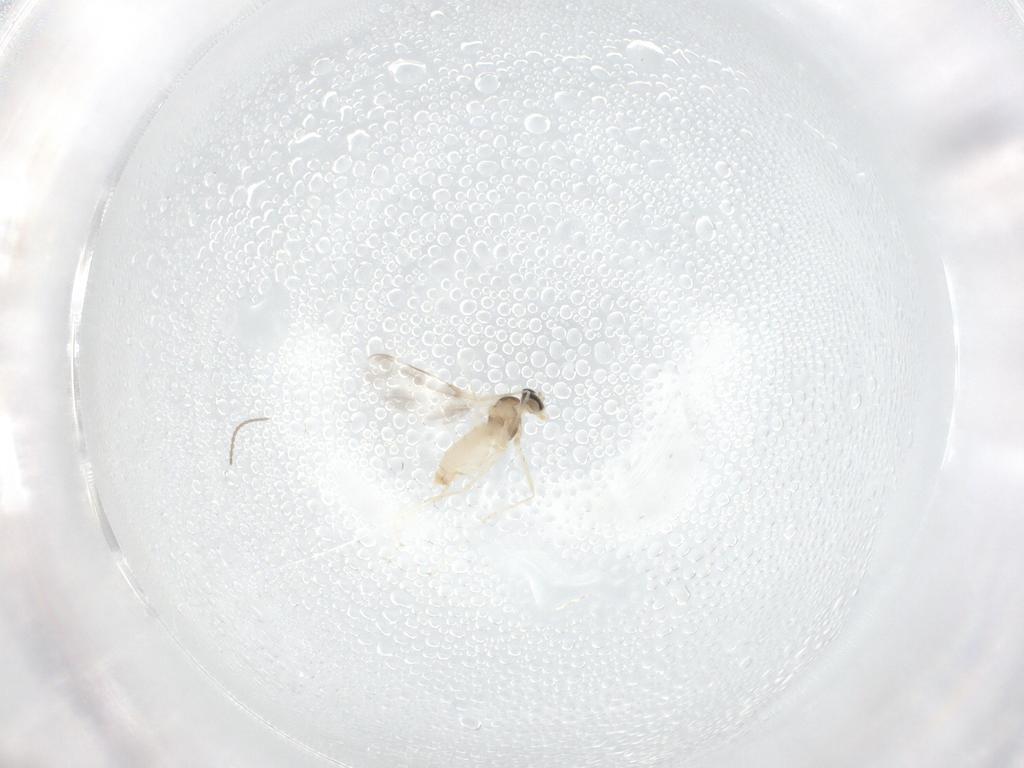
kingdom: Animalia
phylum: Arthropoda
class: Insecta
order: Diptera
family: Cecidomyiidae
